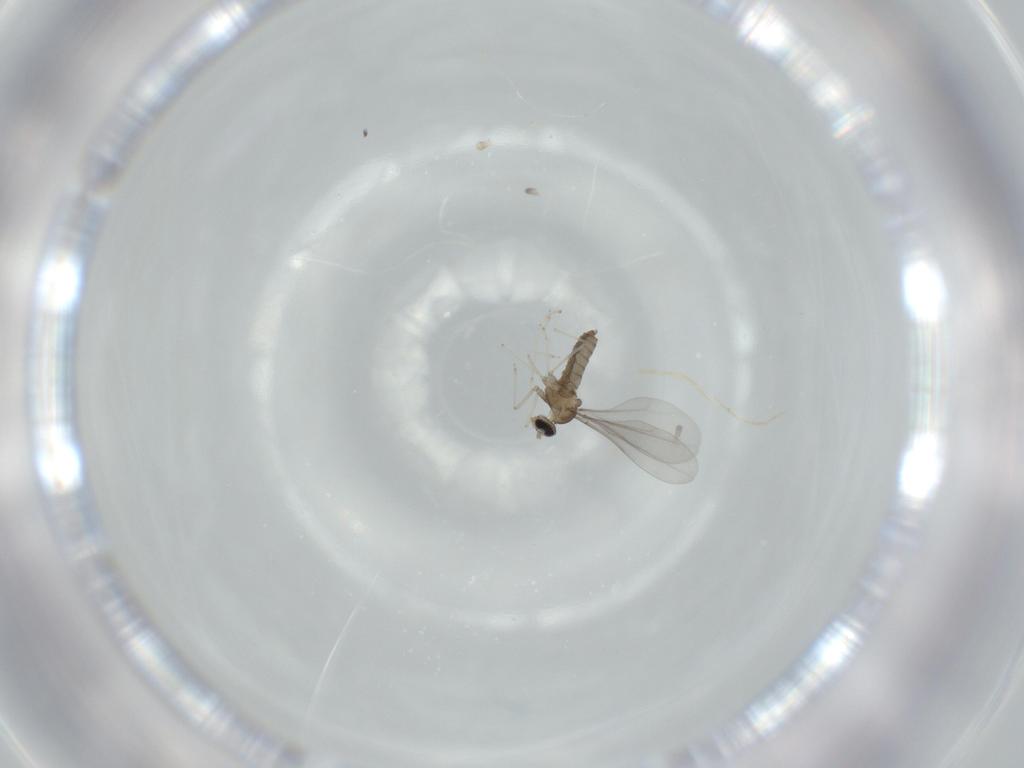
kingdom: Animalia
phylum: Arthropoda
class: Insecta
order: Diptera
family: Cecidomyiidae
